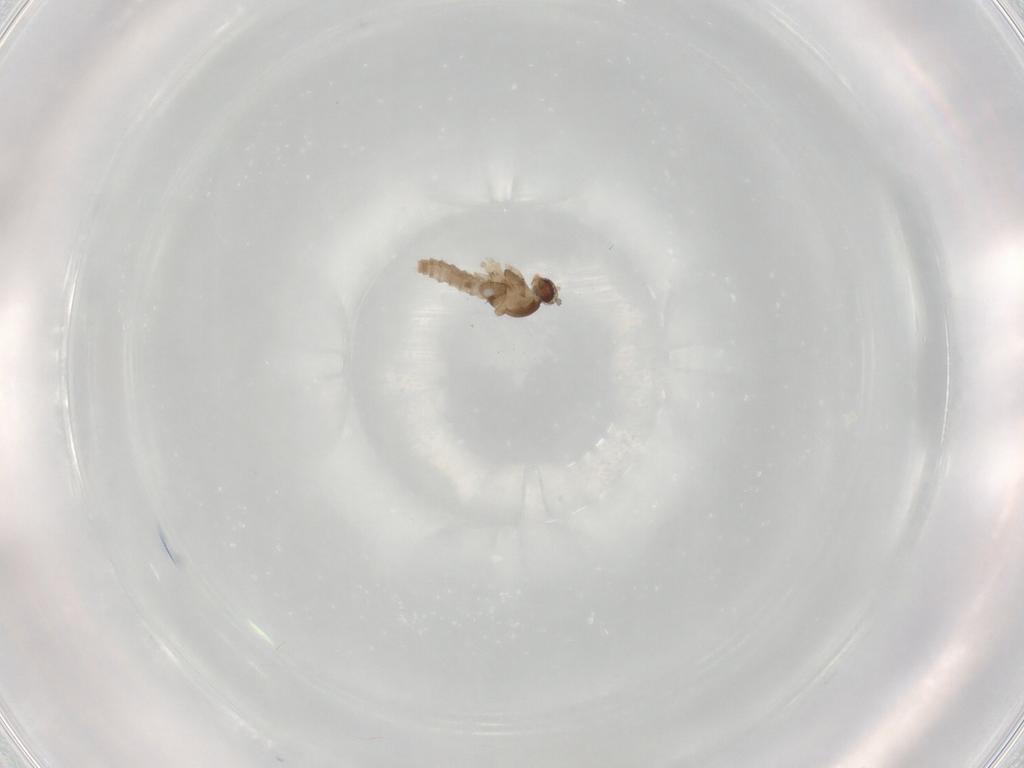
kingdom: Animalia
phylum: Arthropoda
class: Insecta
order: Diptera
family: Cecidomyiidae
